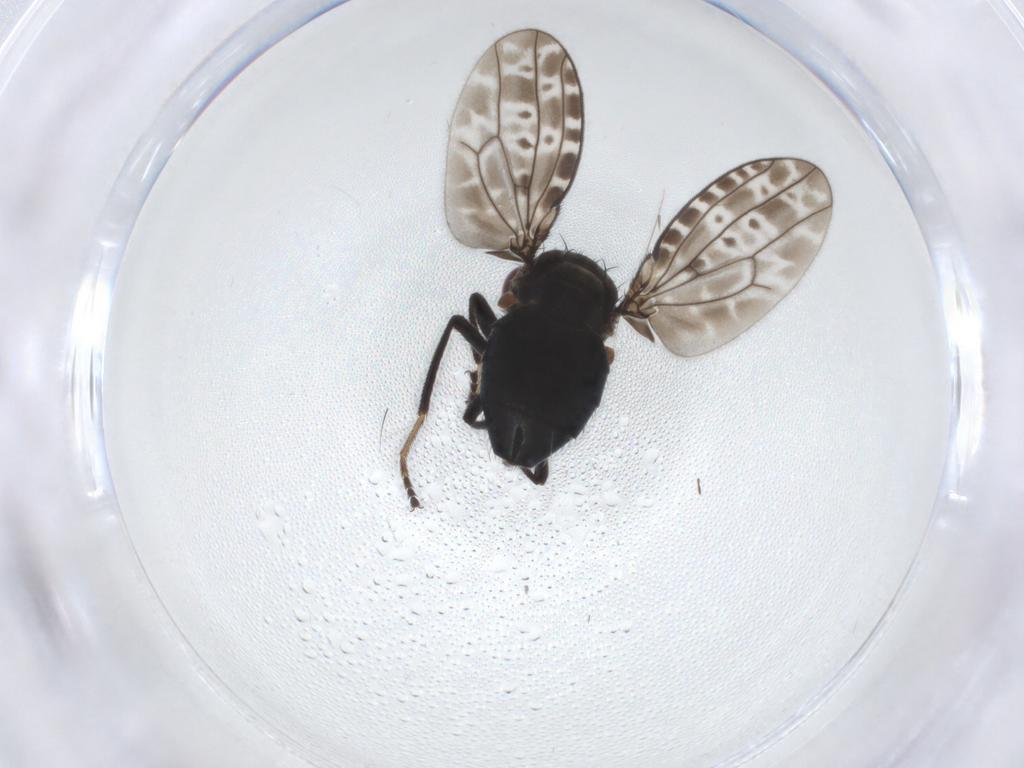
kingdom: Animalia
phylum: Arthropoda
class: Insecta
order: Diptera
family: Ephydridae
